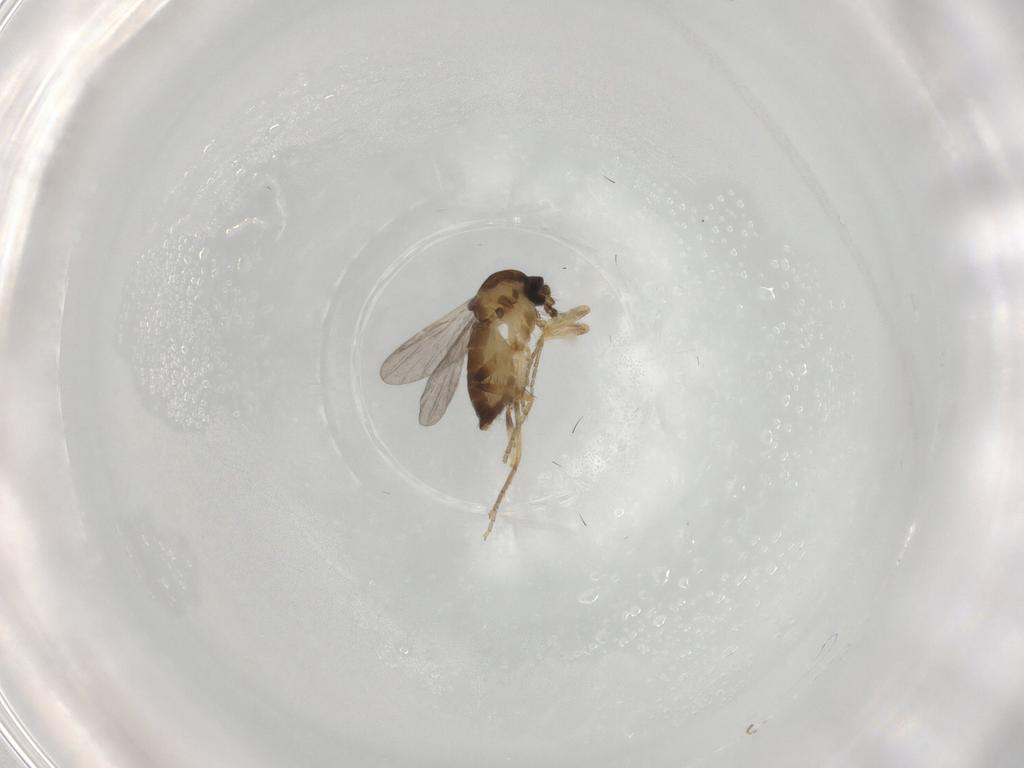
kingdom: Animalia
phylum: Arthropoda
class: Insecta
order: Diptera
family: Ceratopogonidae
